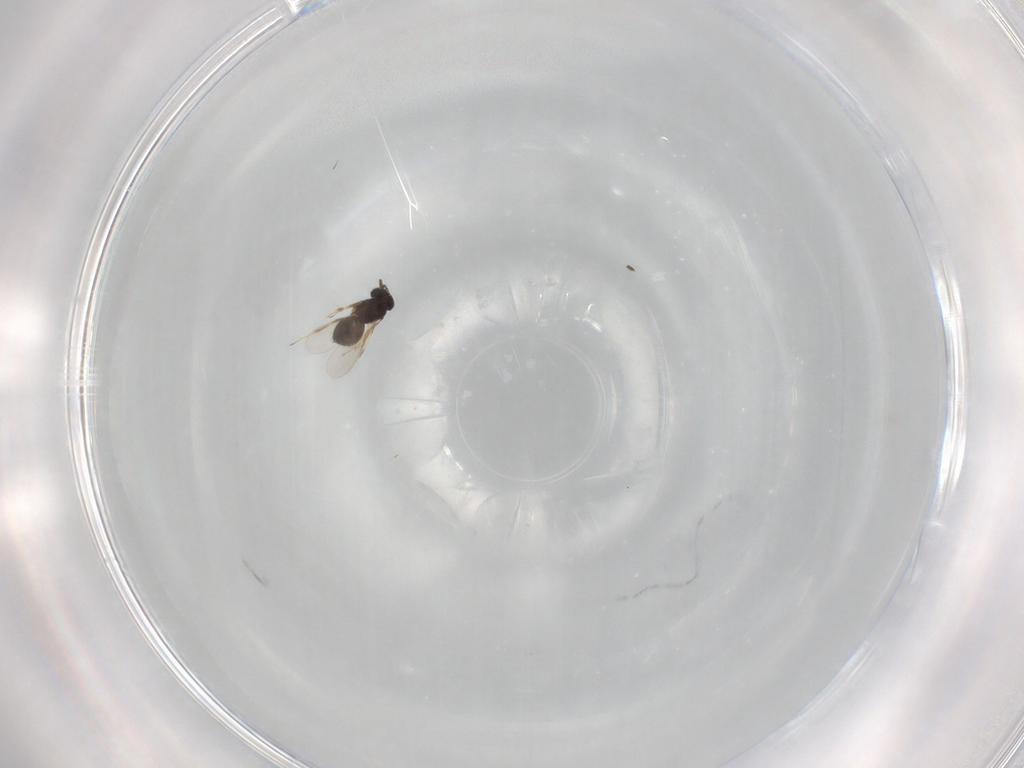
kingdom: Animalia
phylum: Arthropoda
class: Insecta
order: Hymenoptera
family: Scelionidae
